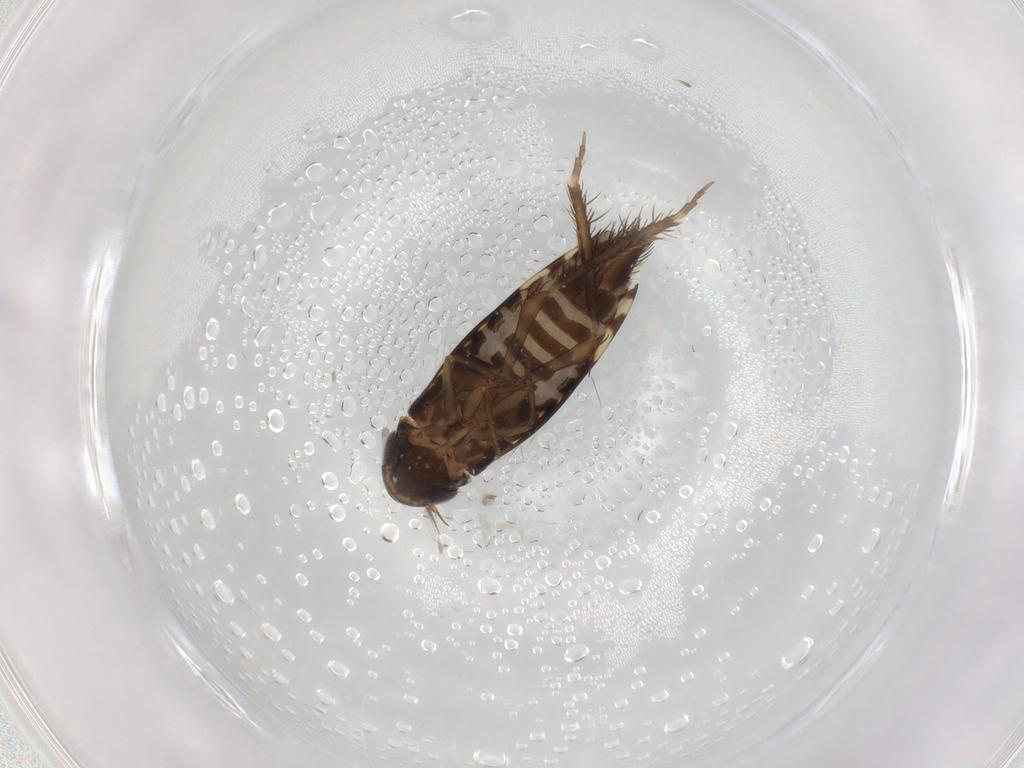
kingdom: Animalia
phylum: Arthropoda
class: Insecta
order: Hemiptera
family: Cicadellidae
